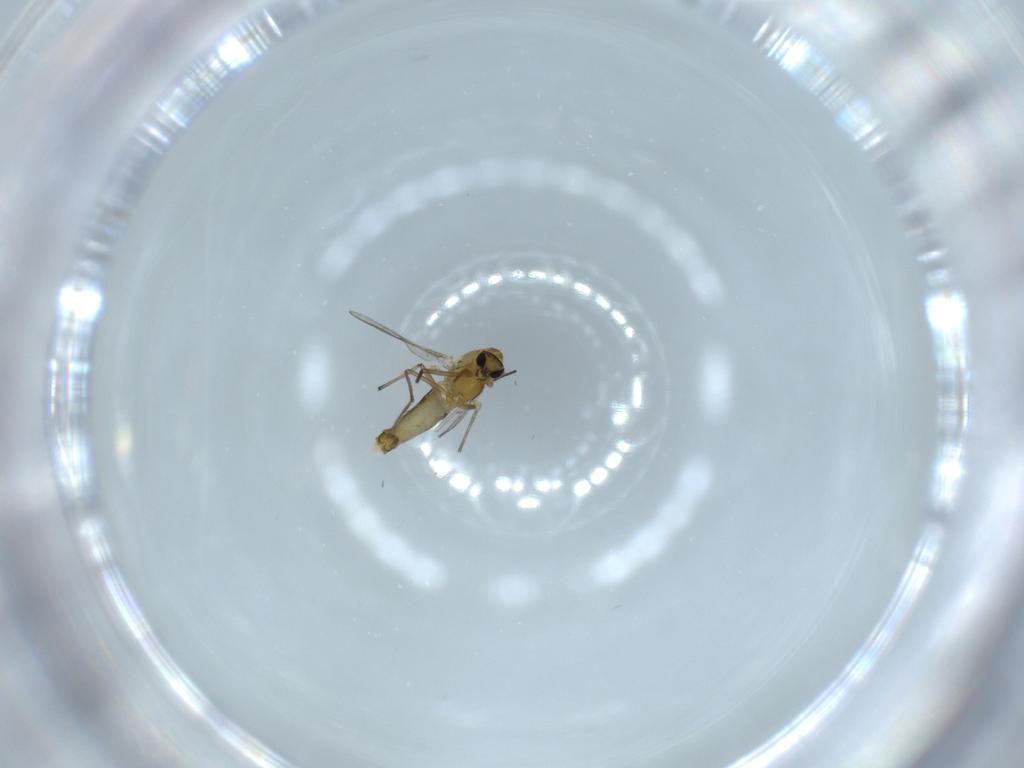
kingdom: Animalia
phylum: Arthropoda
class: Insecta
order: Diptera
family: Chironomidae
